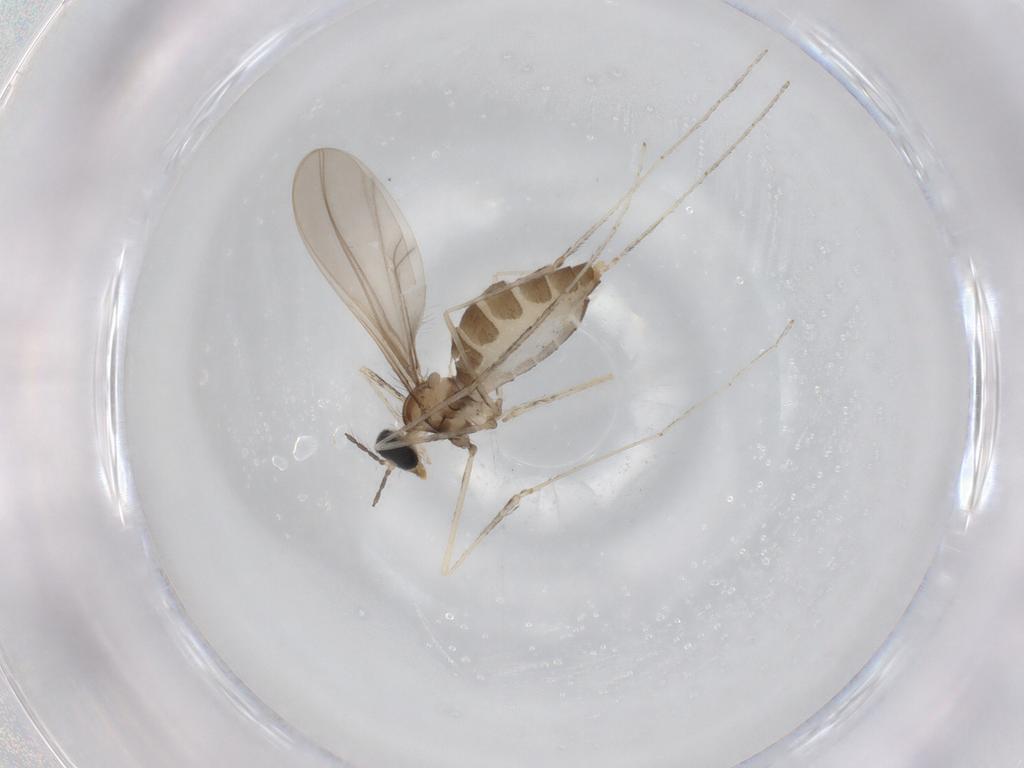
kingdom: Animalia
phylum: Arthropoda
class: Insecta
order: Diptera
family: Cecidomyiidae
